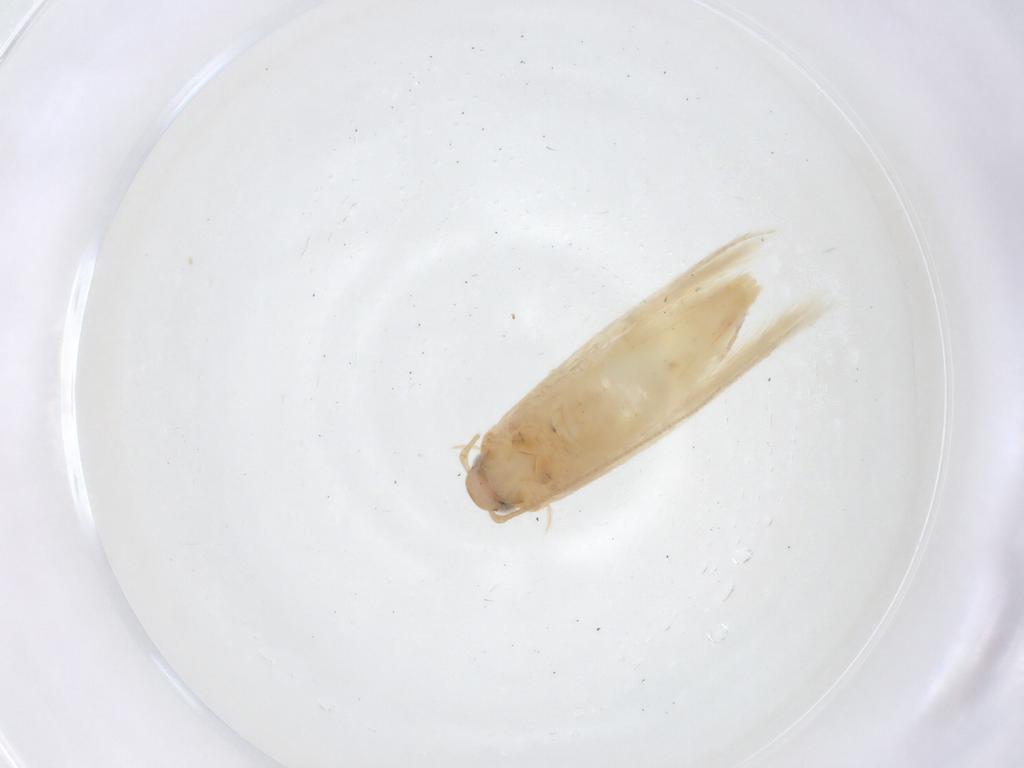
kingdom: Animalia
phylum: Arthropoda
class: Insecta
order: Lepidoptera
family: Gelechiidae
